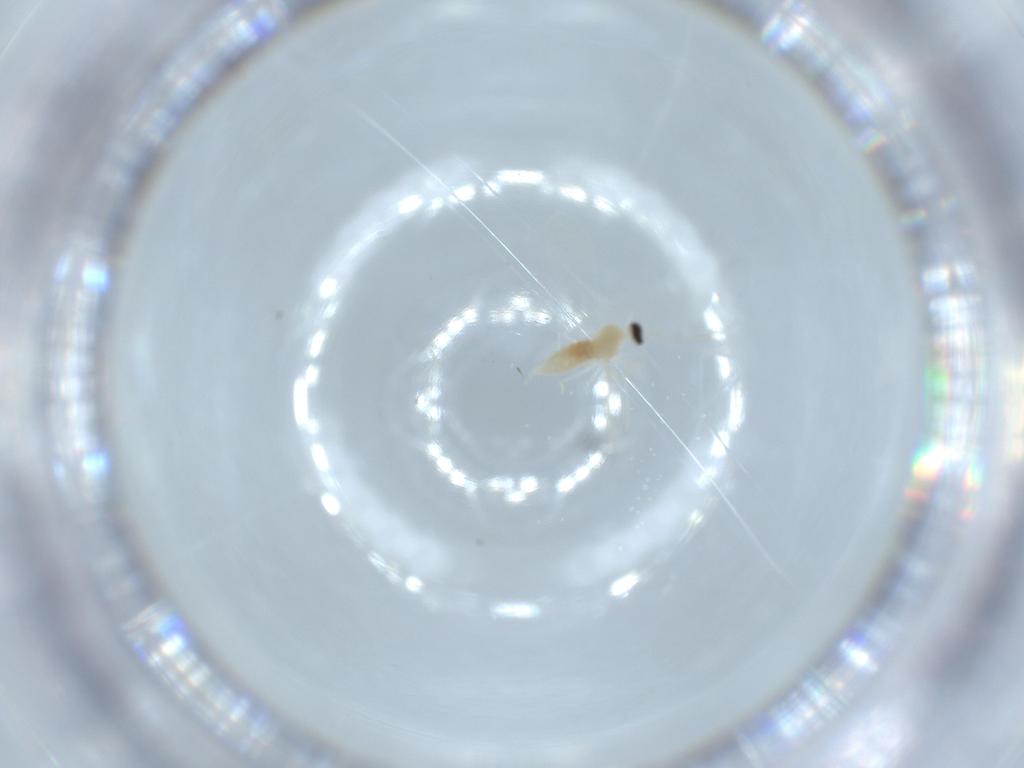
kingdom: Animalia
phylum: Arthropoda
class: Insecta
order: Diptera
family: Cecidomyiidae
